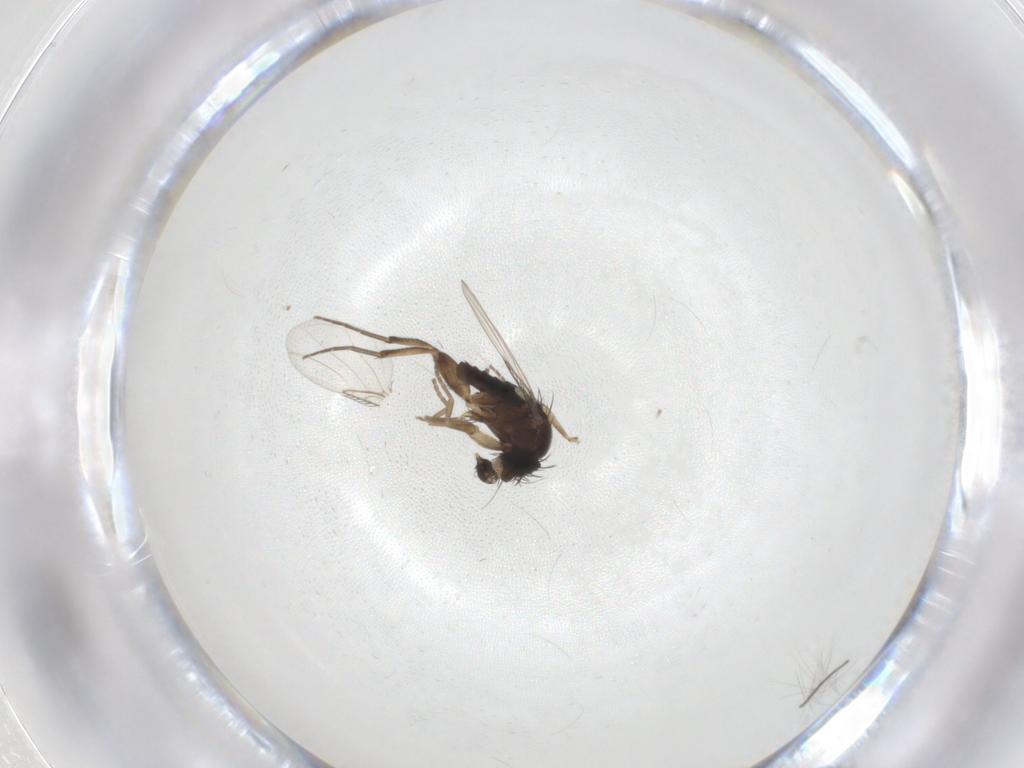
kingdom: Animalia
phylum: Arthropoda
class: Insecta
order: Diptera
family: Phoridae
